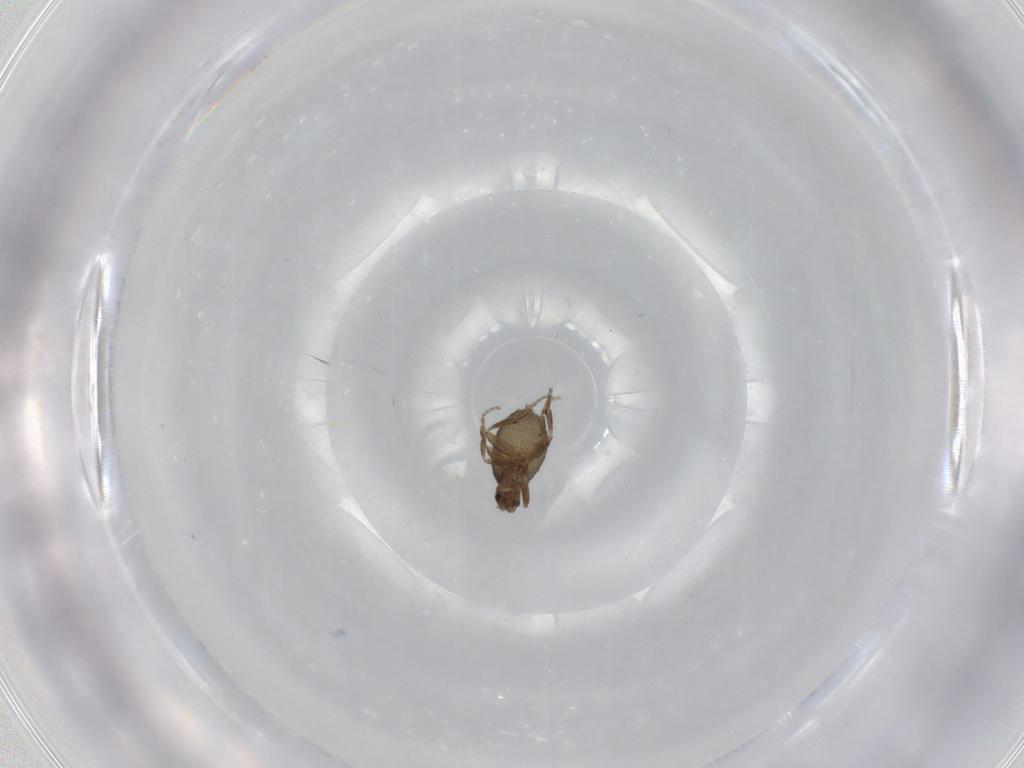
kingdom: Animalia
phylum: Arthropoda
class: Insecta
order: Diptera
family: Phoridae
